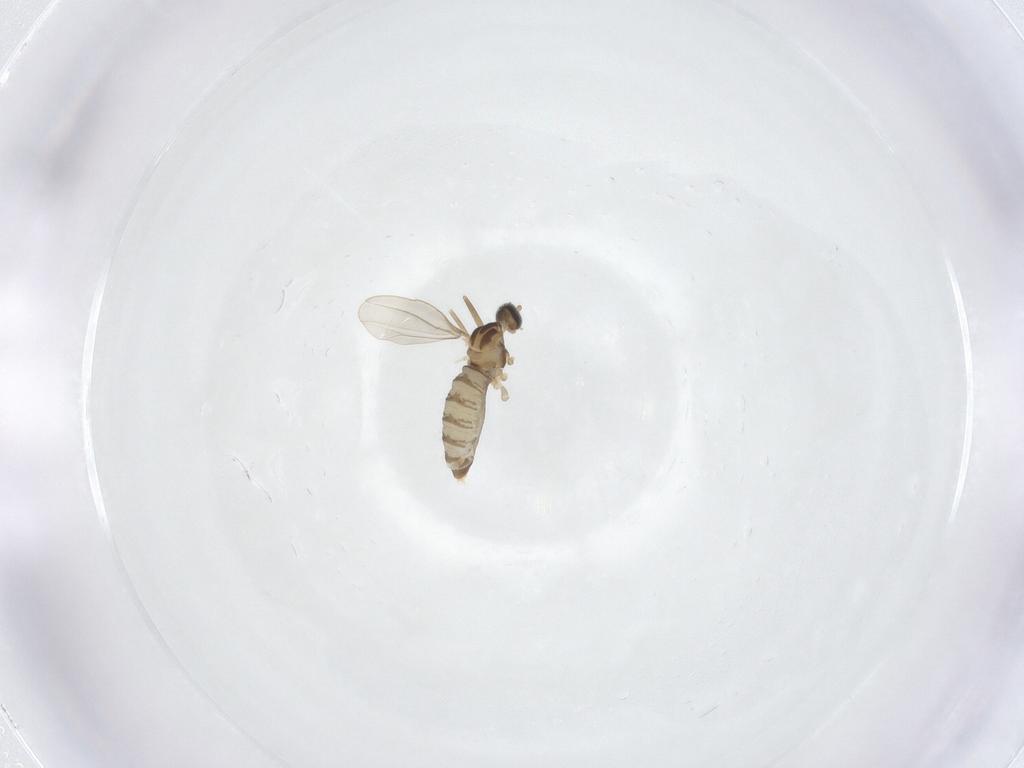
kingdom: Animalia
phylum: Arthropoda
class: Insecta
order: Diptera
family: Cecidomyiidae
